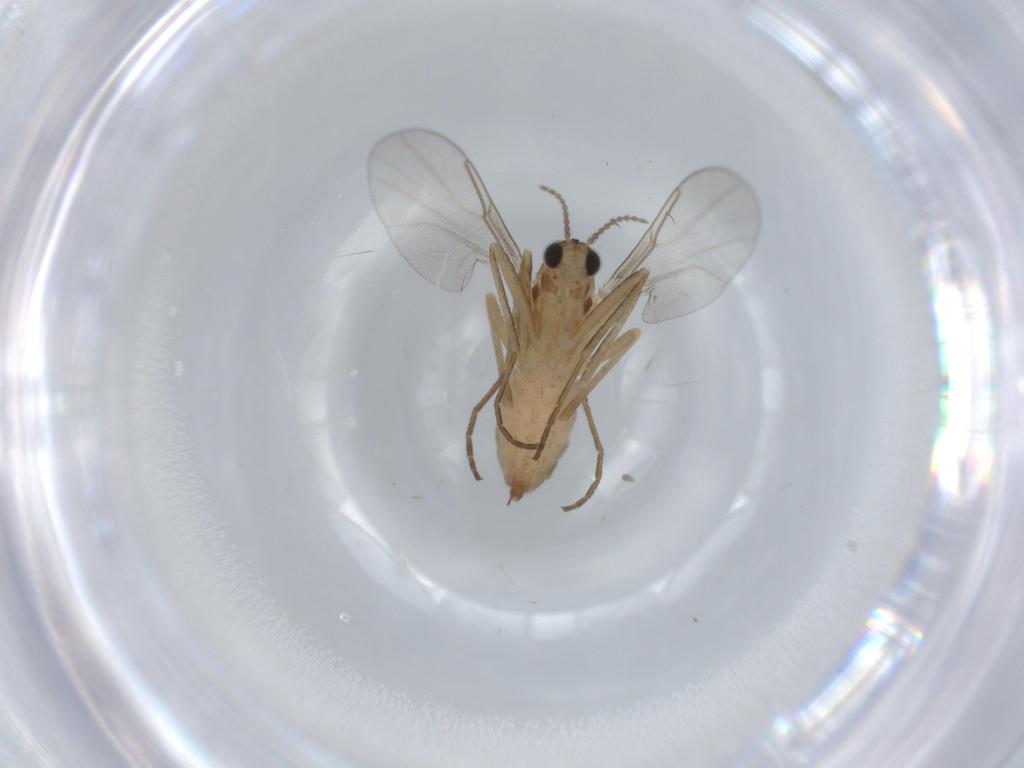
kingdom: Animalia
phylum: Arthropoda
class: Insecta
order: Diptera
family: Cecidomyiidae
